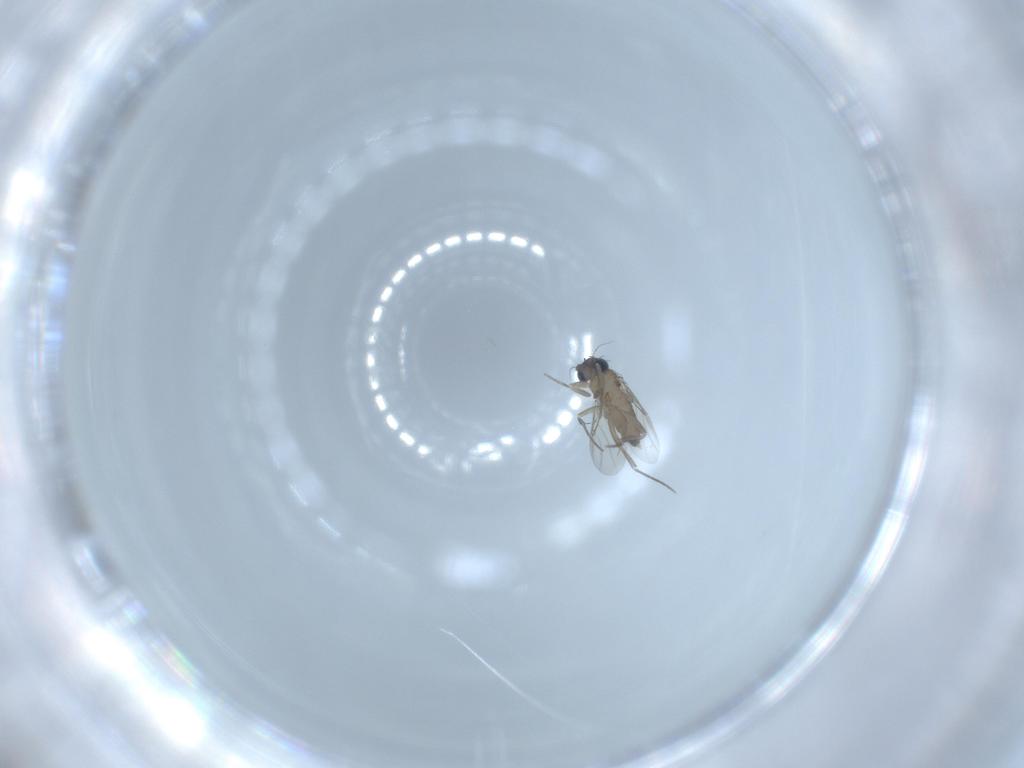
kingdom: Animalia
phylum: Arthropoda
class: Insecta
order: Diptera
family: Phoridae
